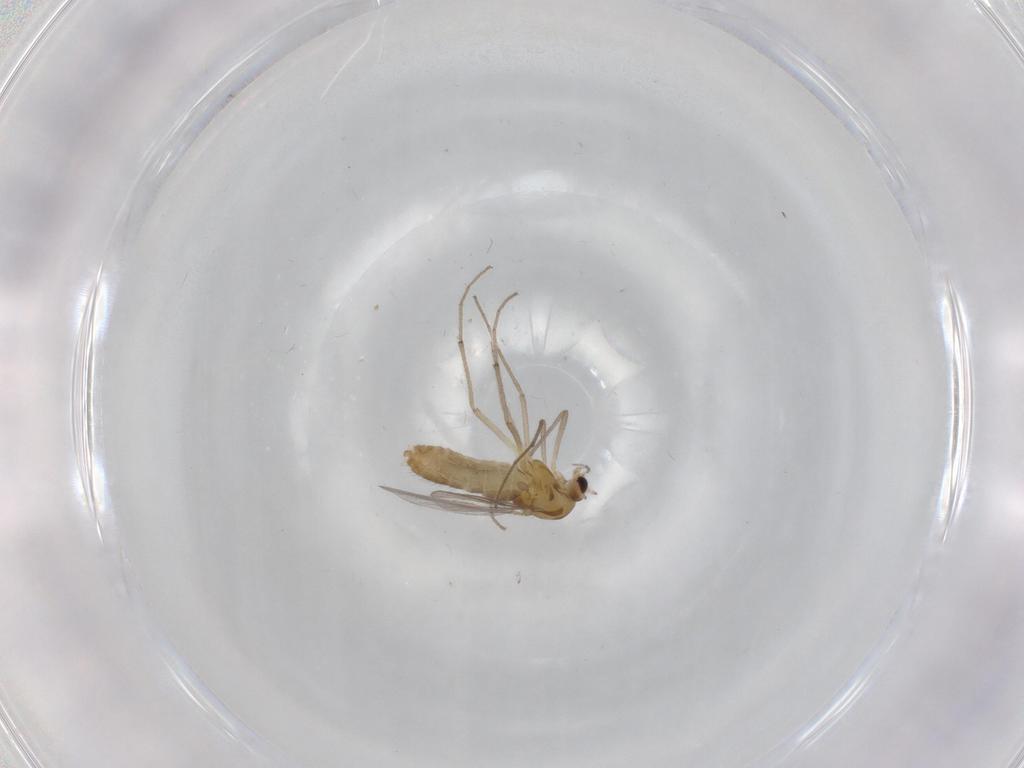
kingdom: Animalia
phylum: Arthropoda
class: Insecta
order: Diptera
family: Chironomidae
